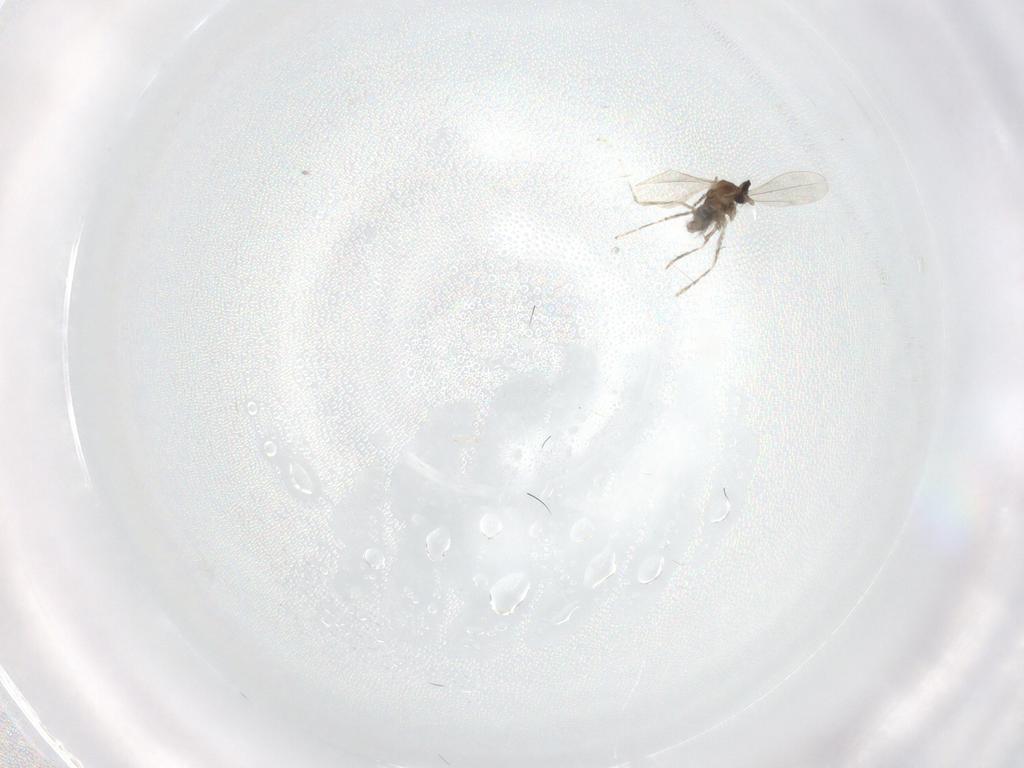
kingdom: Animalia
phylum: Arthropoda
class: Insecta
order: Diptera
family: Cecidomyiidae
